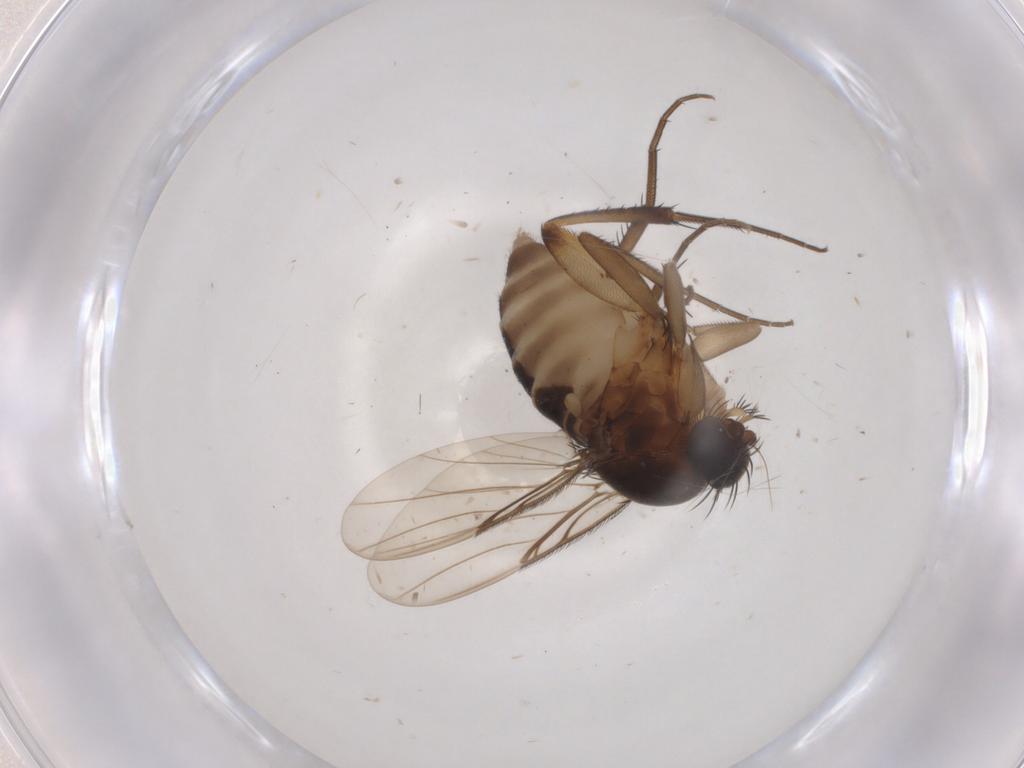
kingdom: Animalia
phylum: Arthropoda
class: Insecta
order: Diptera
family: Phoridae
